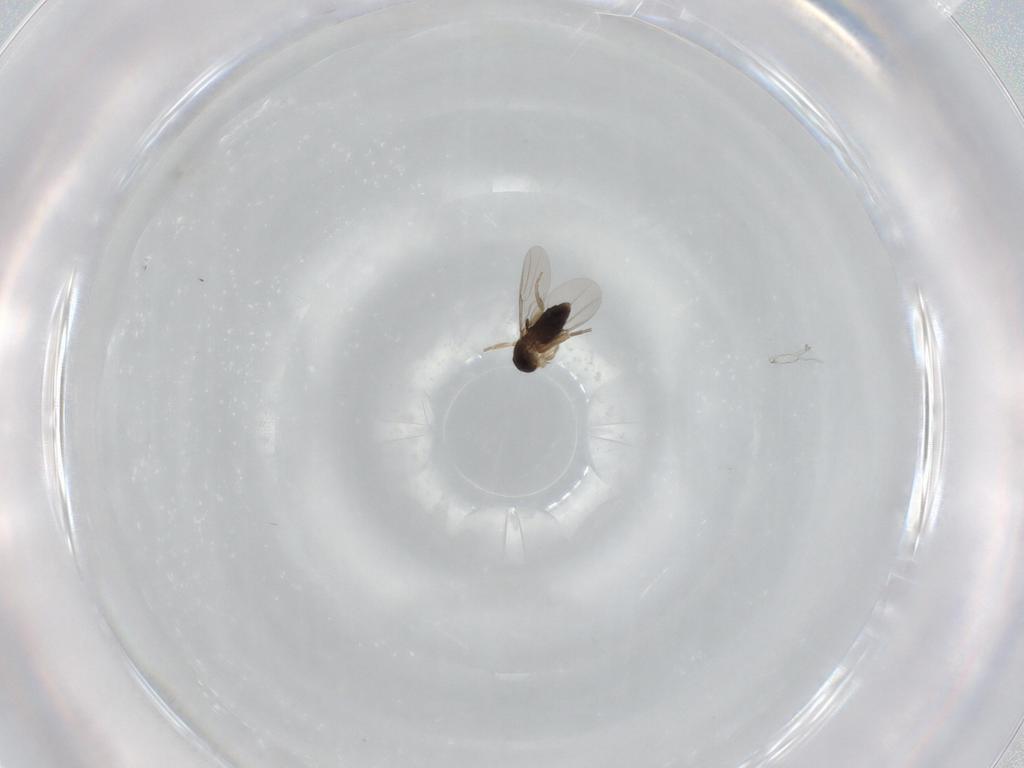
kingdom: Animalia
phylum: Arthropoda
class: Insecta
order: Diptera
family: Phoridae
